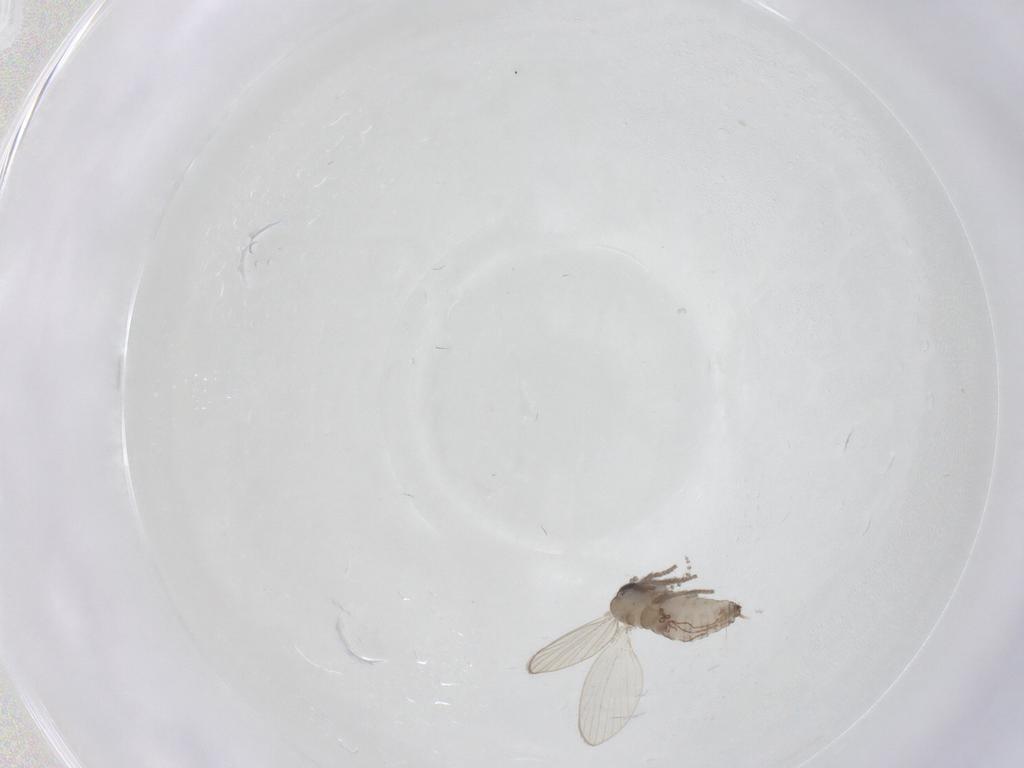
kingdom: Animalia
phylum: Arthropoda
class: Insecta
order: Diptera
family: Psychodidae
